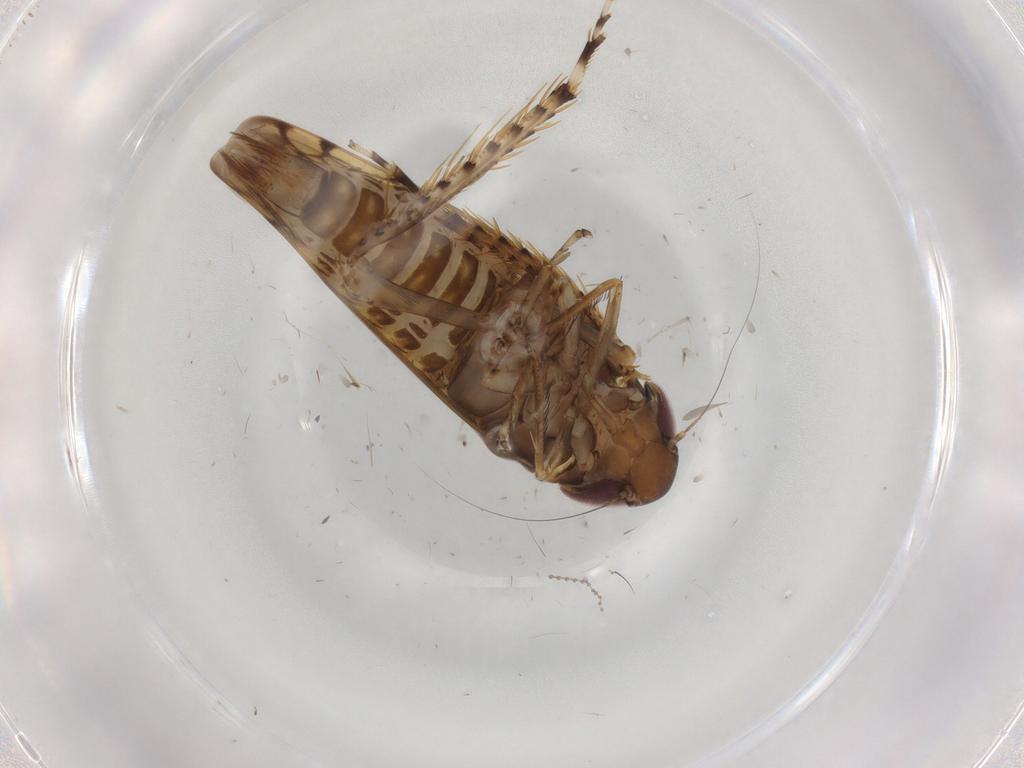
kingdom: Animalia
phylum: Arthropoda
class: Insecta
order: Hemiptera
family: Cicadellidae
